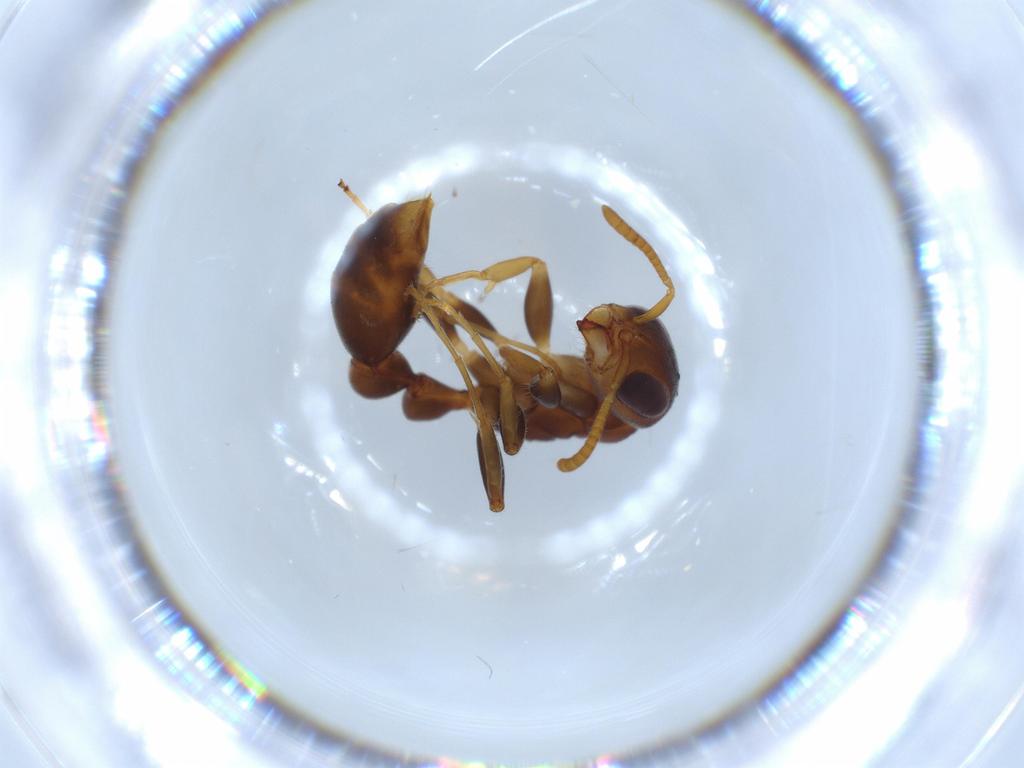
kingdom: Animalia
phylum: Arthropoda
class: Insecta
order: Hymenoptera
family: Formicidae
